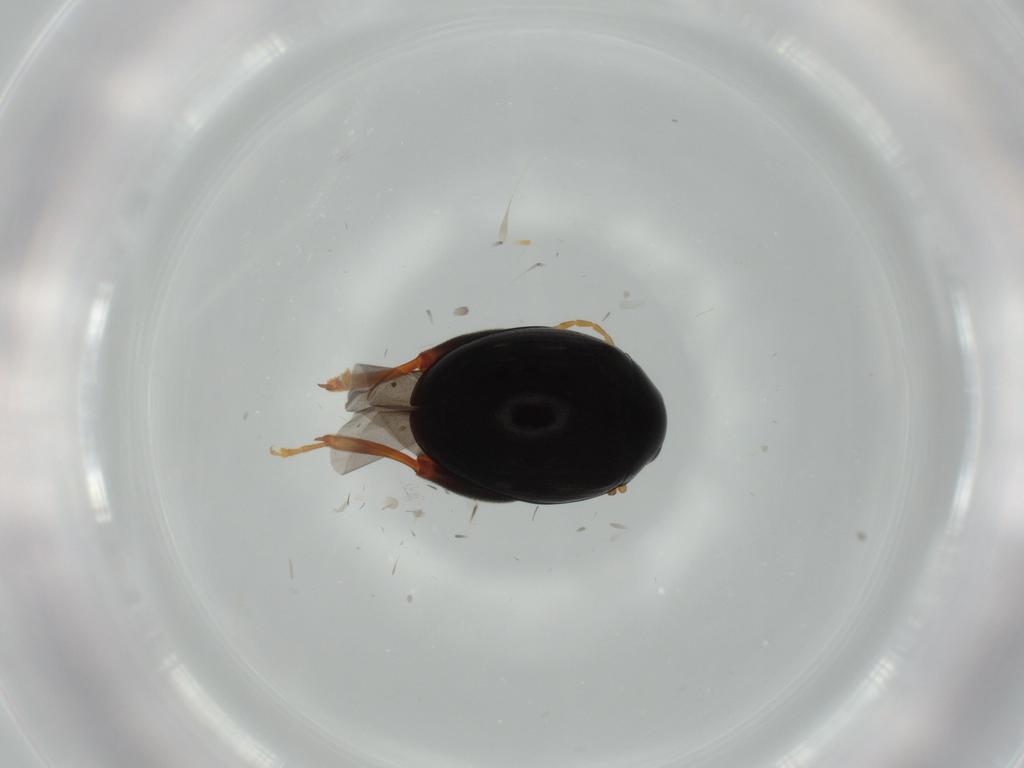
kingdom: Animalia
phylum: Arthropoda
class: Insecta
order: Coleoptera
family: Chrysomelidae
